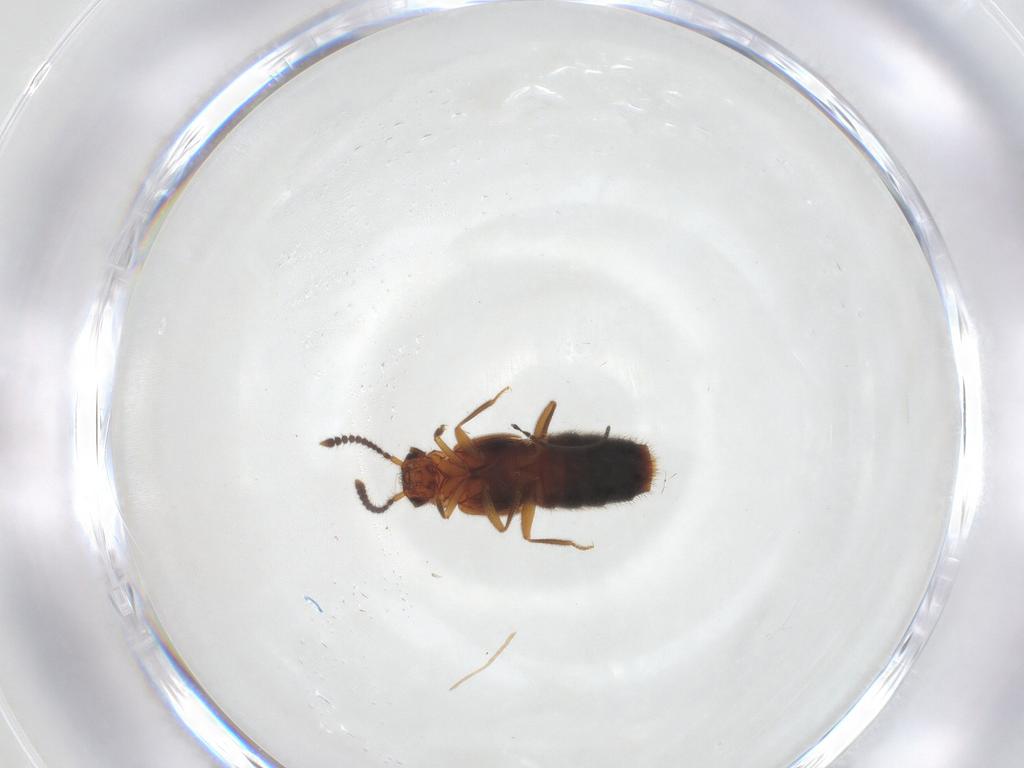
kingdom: Animalia
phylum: Arthropoda
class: Insecta
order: Coleoptera
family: Staphylinidae
